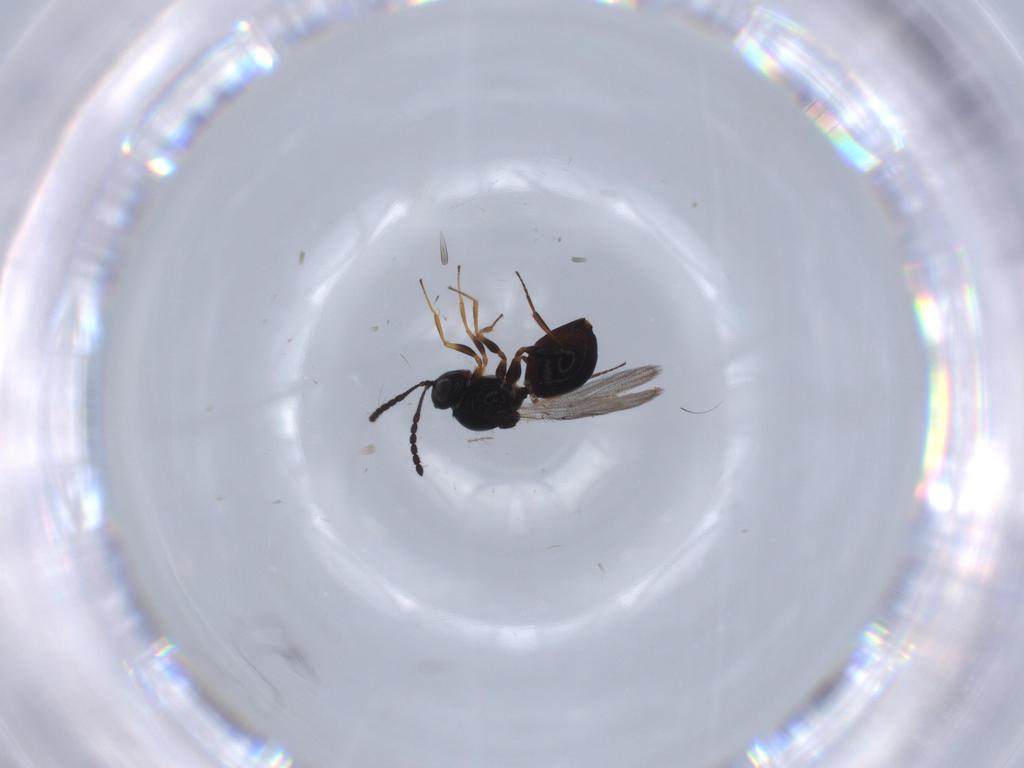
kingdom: Animalia
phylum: Arthropoda
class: Insecta
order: Hymenoptera
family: Figitidae
